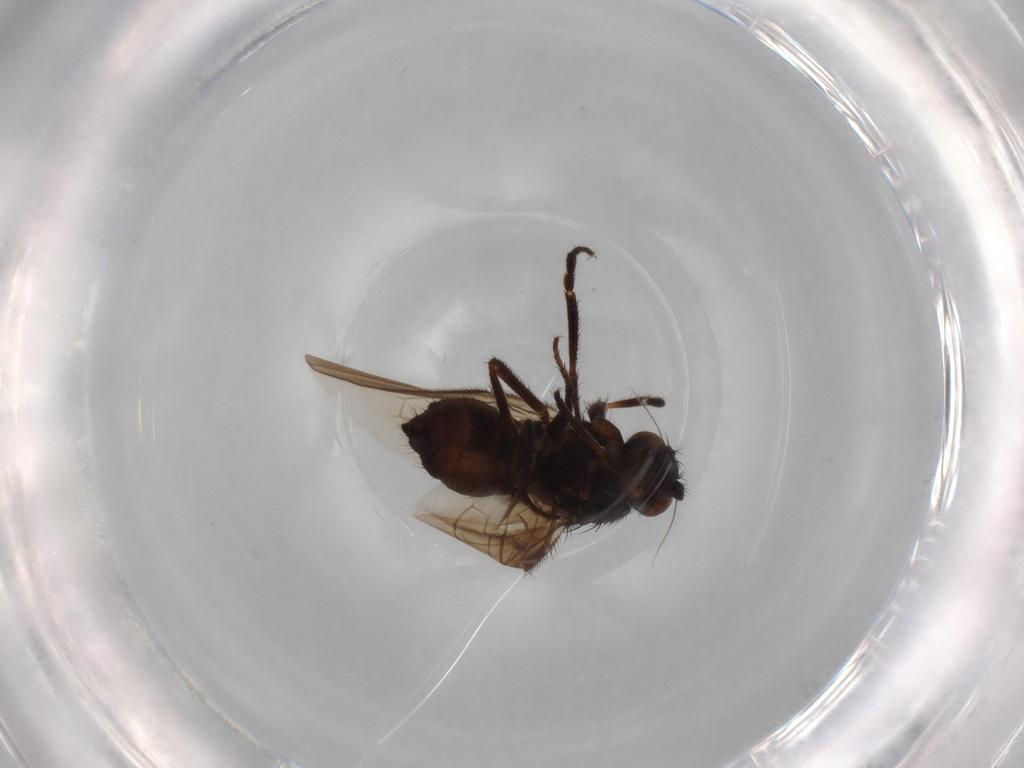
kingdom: Animalia
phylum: Arthropoda
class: Insecta
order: Diptera
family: Sphaeroceridae
